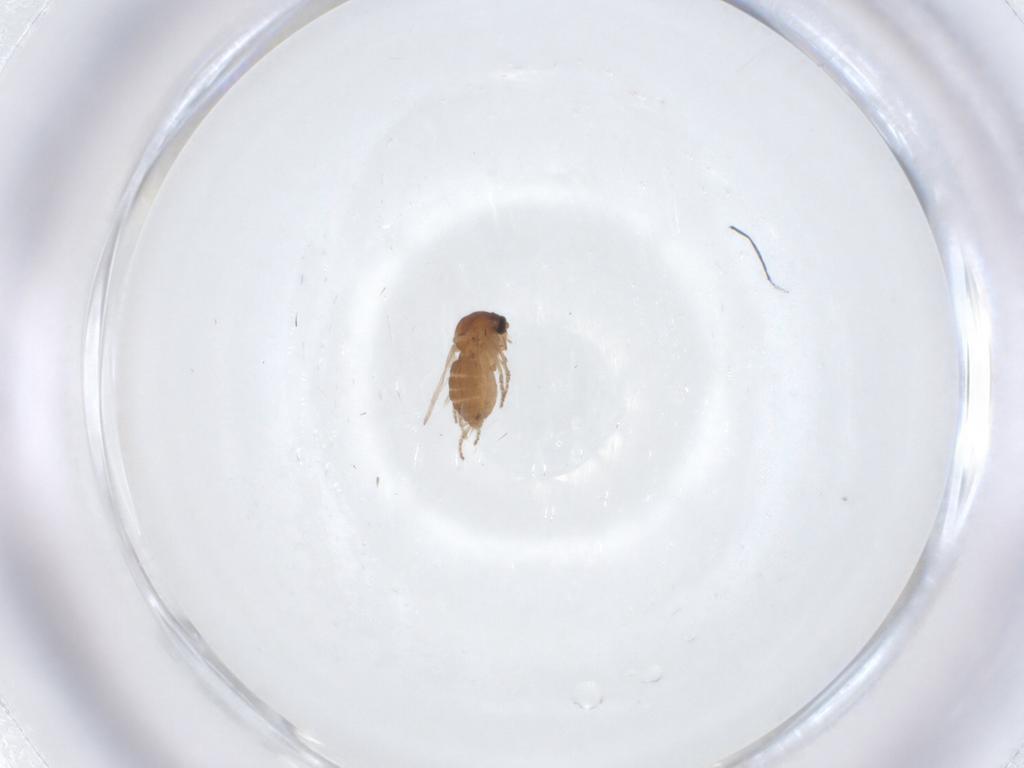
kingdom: Animalia
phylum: Arthropoda
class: Insecta
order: Diptera
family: Ceratopogonidae
